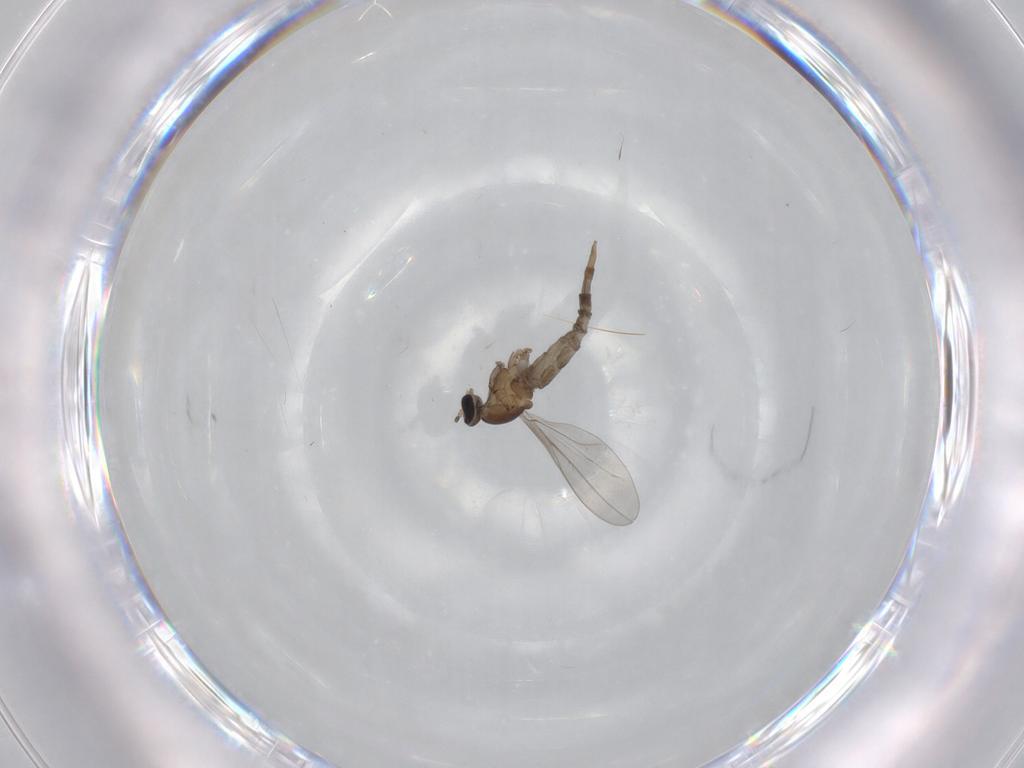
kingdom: Animalia
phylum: Arthropoda
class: Insecta
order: Diptera
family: Cecidomyiidae
